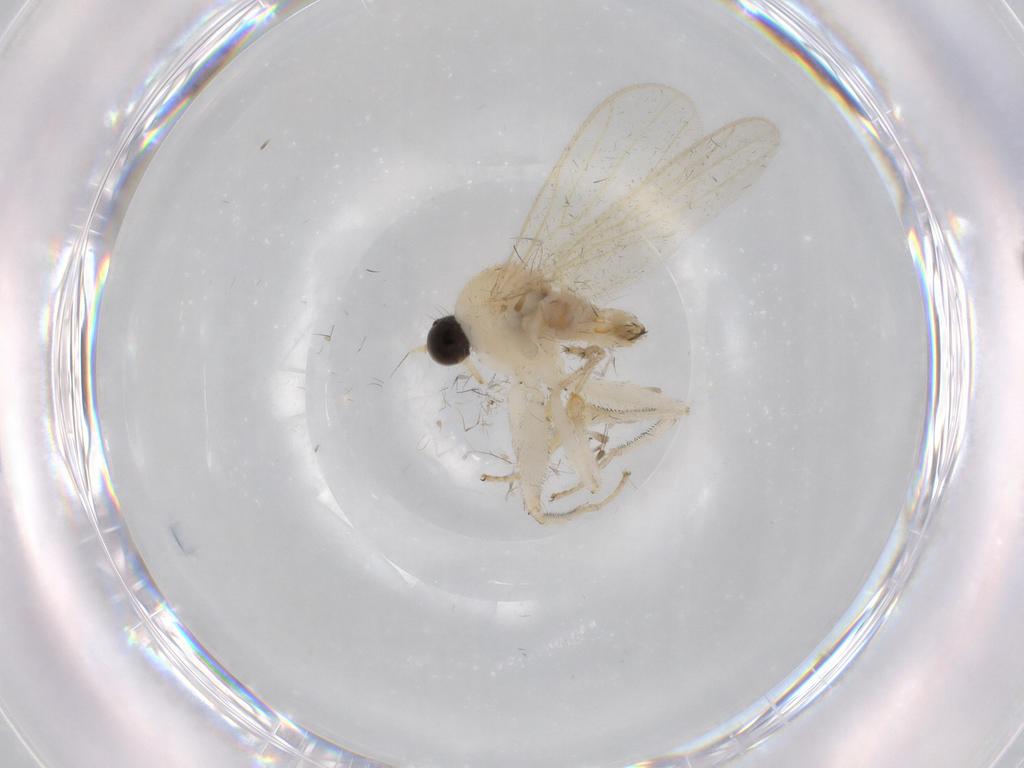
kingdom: Animalia
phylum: Arthropoda
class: Insecta
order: Diptera
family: Hybotidae
